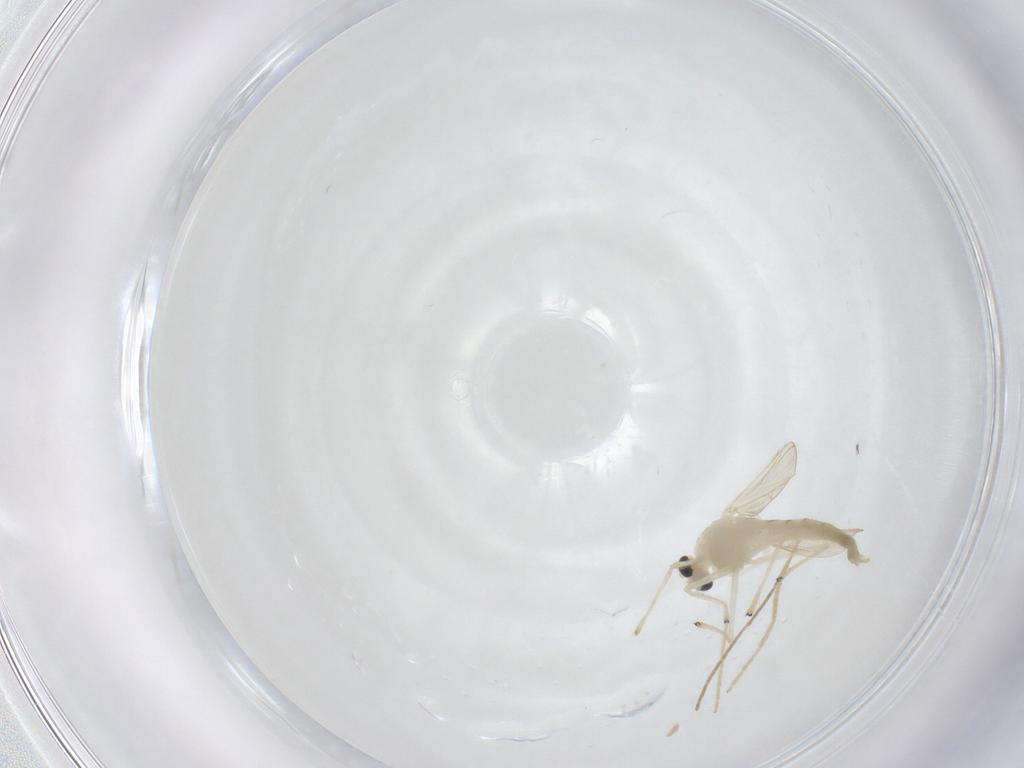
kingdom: Animalia
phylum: Arthropoda
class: Insecta
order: Diptera
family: Chironomidae
